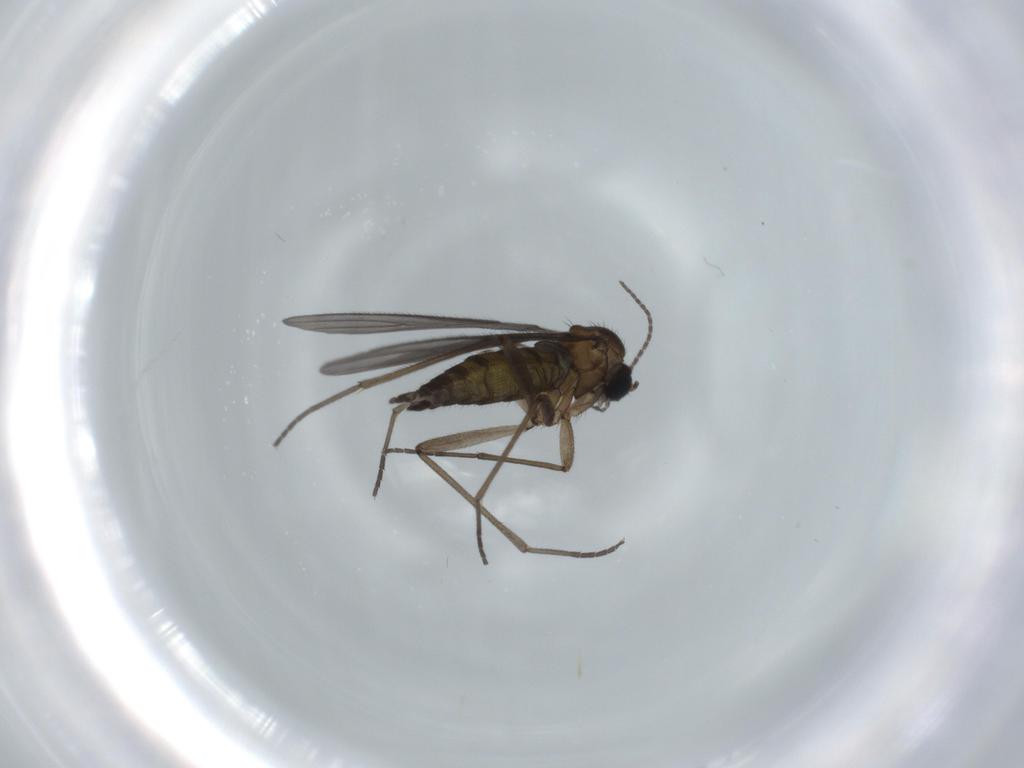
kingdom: Animalia
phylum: Arthropoda
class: Insecta
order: Diptera
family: Sciaridae
